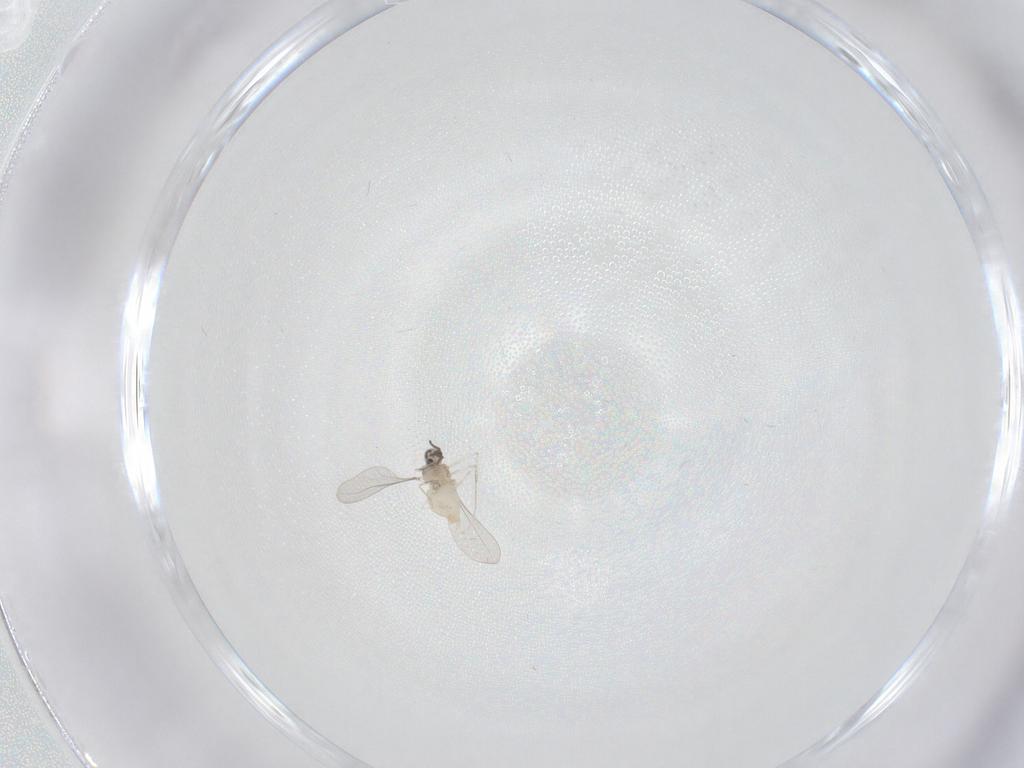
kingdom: Animalia
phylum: Arthropoda
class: Insecta
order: Diptera
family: Cecidomyiidae
